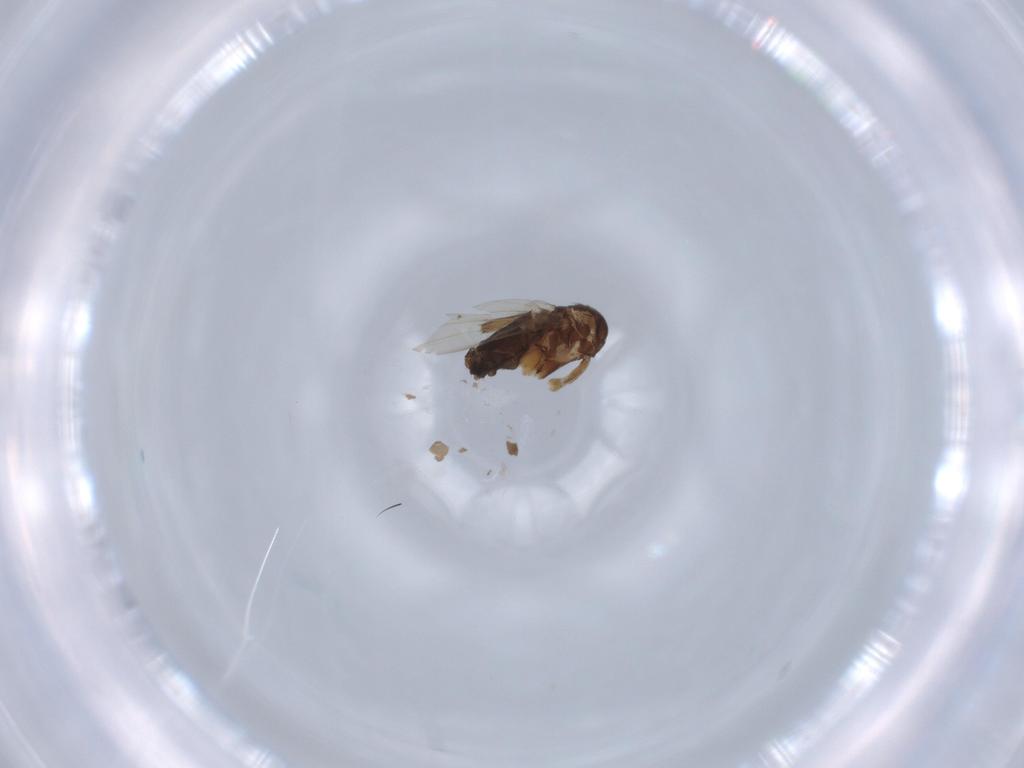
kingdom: Animalia
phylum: Arthropoda
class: Insecta
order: Diptera
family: Phoridae
